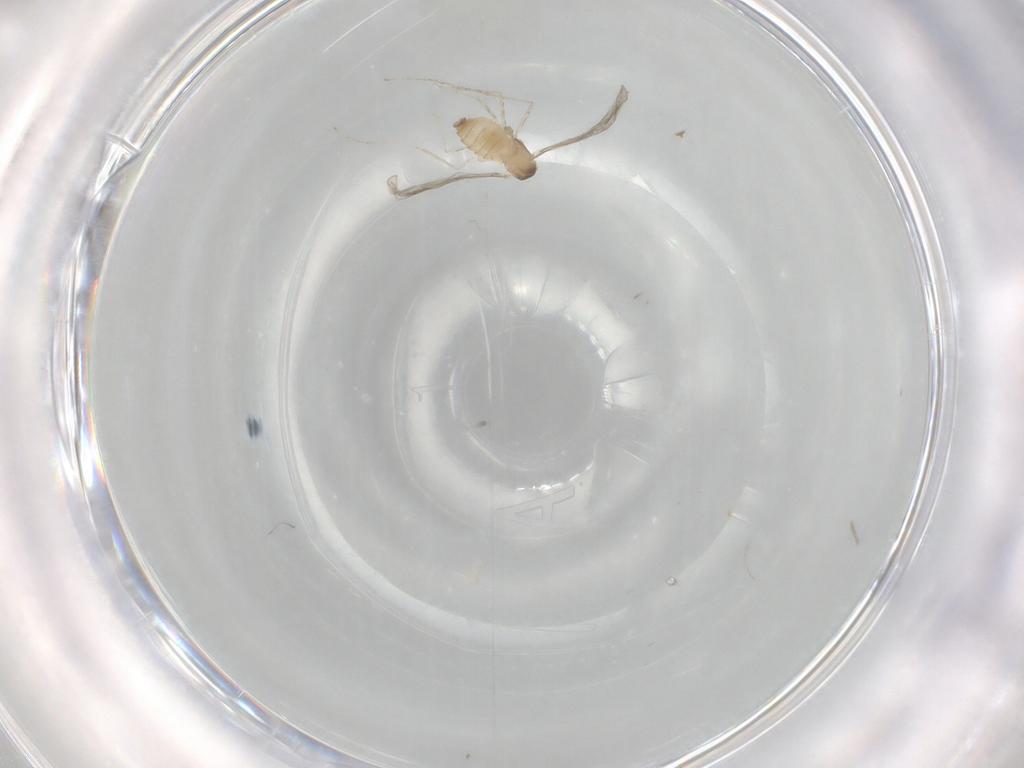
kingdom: Animalia
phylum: Arthropoda
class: Insecta
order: Diptera
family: Cecidomyiidae
